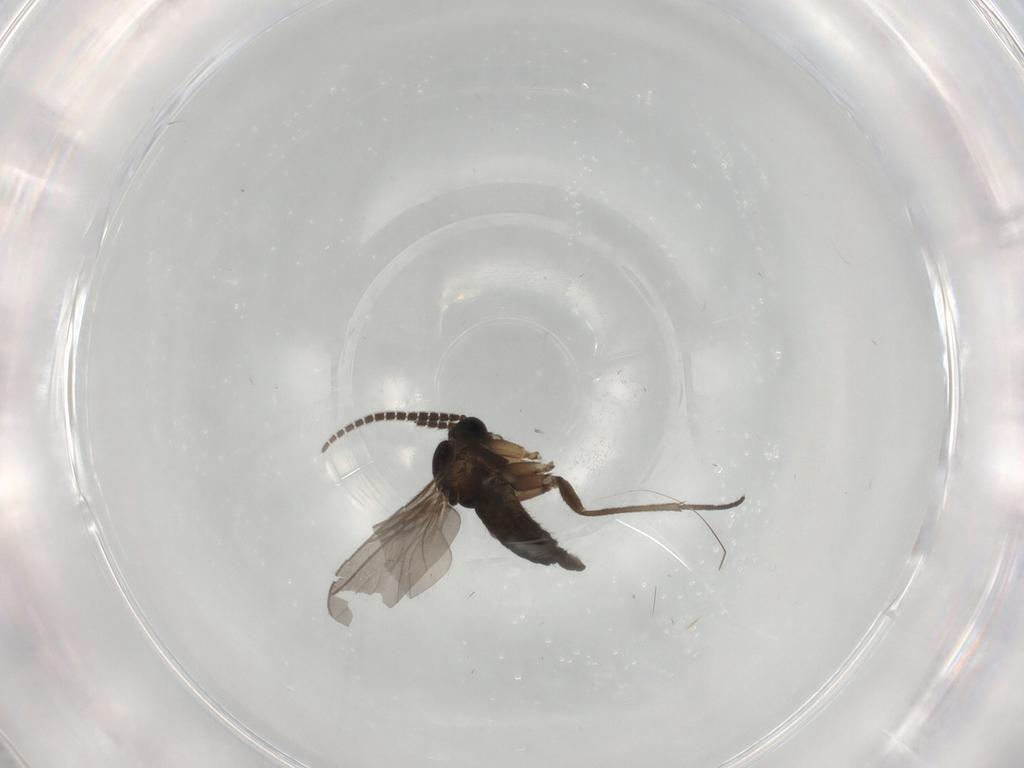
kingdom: Animalia
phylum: Arthropoda
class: Insecta
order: Diptera
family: Sciaridae
